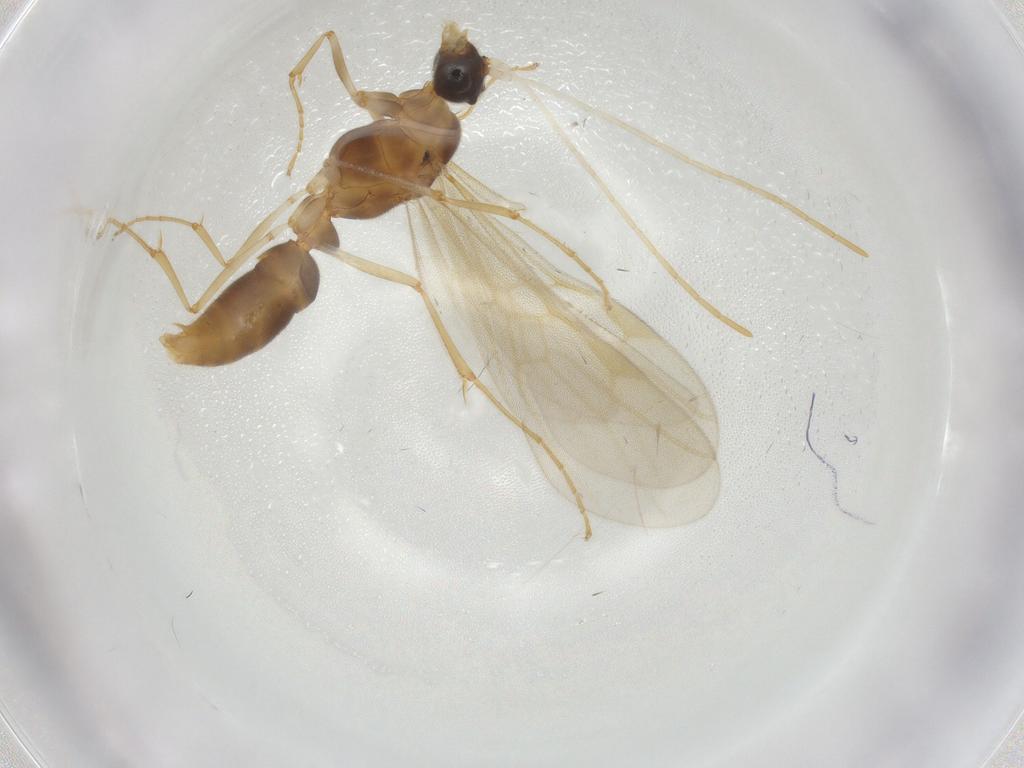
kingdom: Animalia
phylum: Arthropoda
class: Insecta
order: Hymenoptera
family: Formicidae
